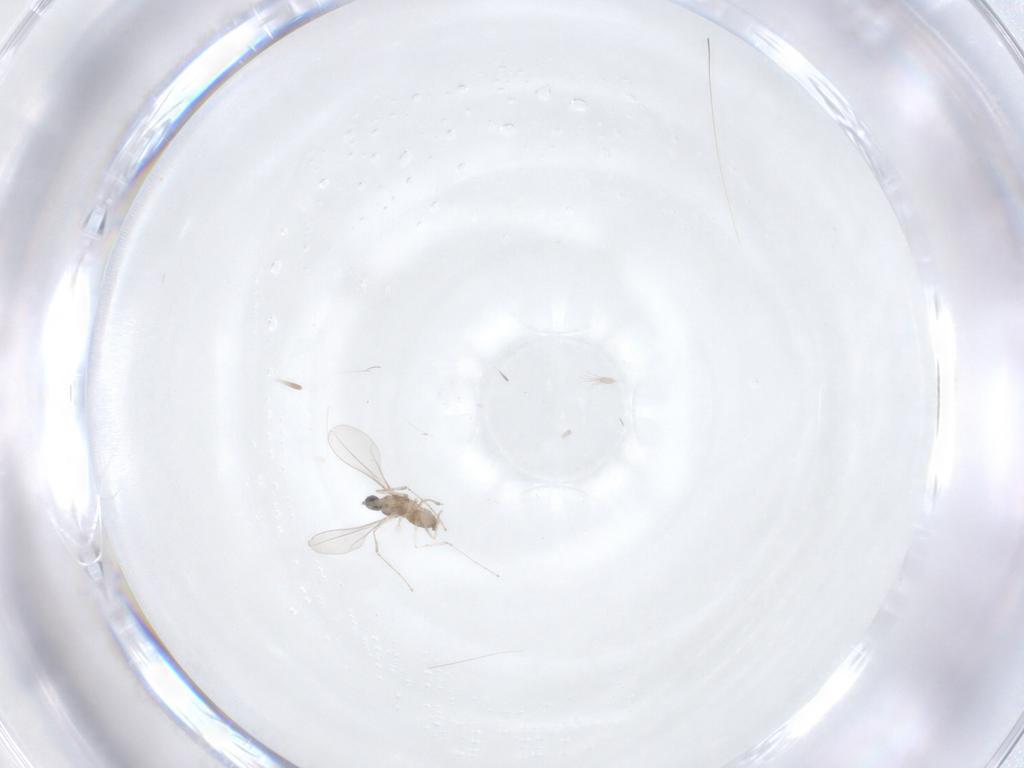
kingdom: Animalia
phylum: Arthropoda
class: Insecta
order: Diptera
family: Cecidomyiidae
